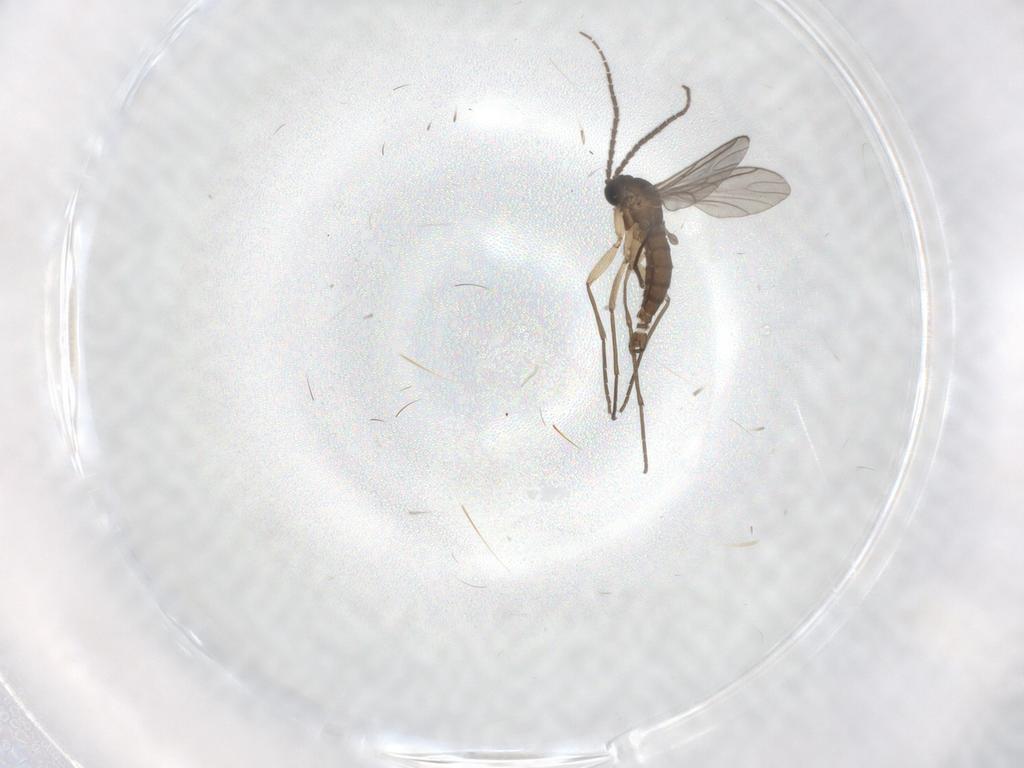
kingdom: Animalia
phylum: Arthropoda
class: Insecta
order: Diptera
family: Sciaridae
